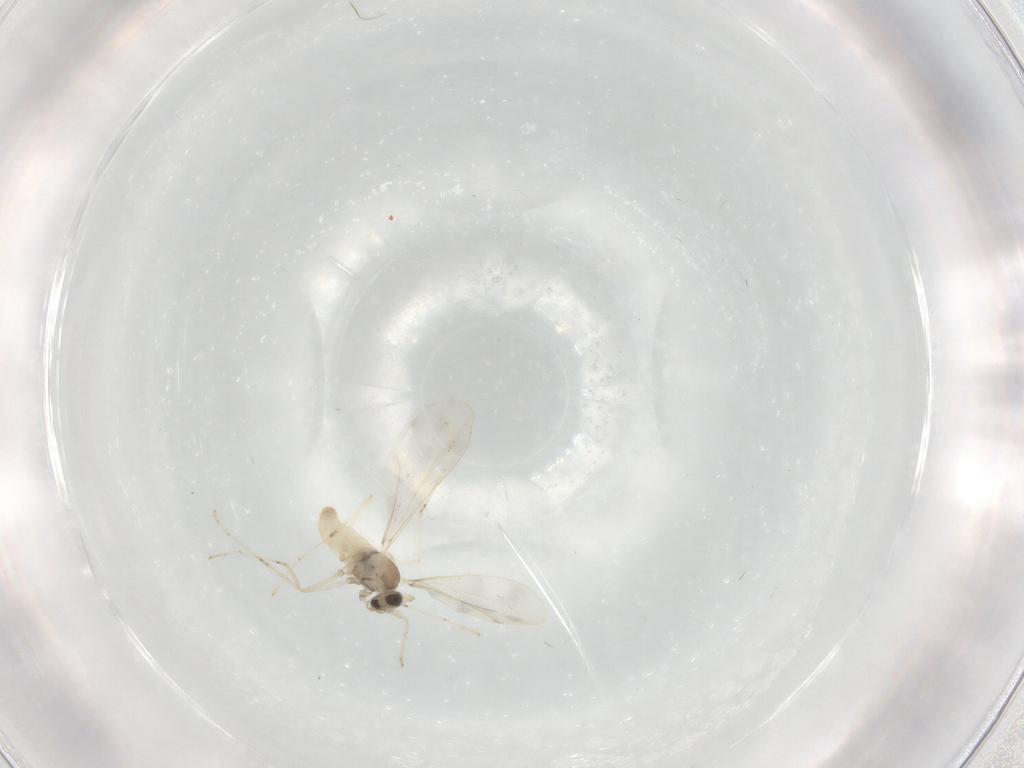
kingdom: Animalia
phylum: Arthropoda
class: Insecta
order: Diptera
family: Cecidomyiidae
